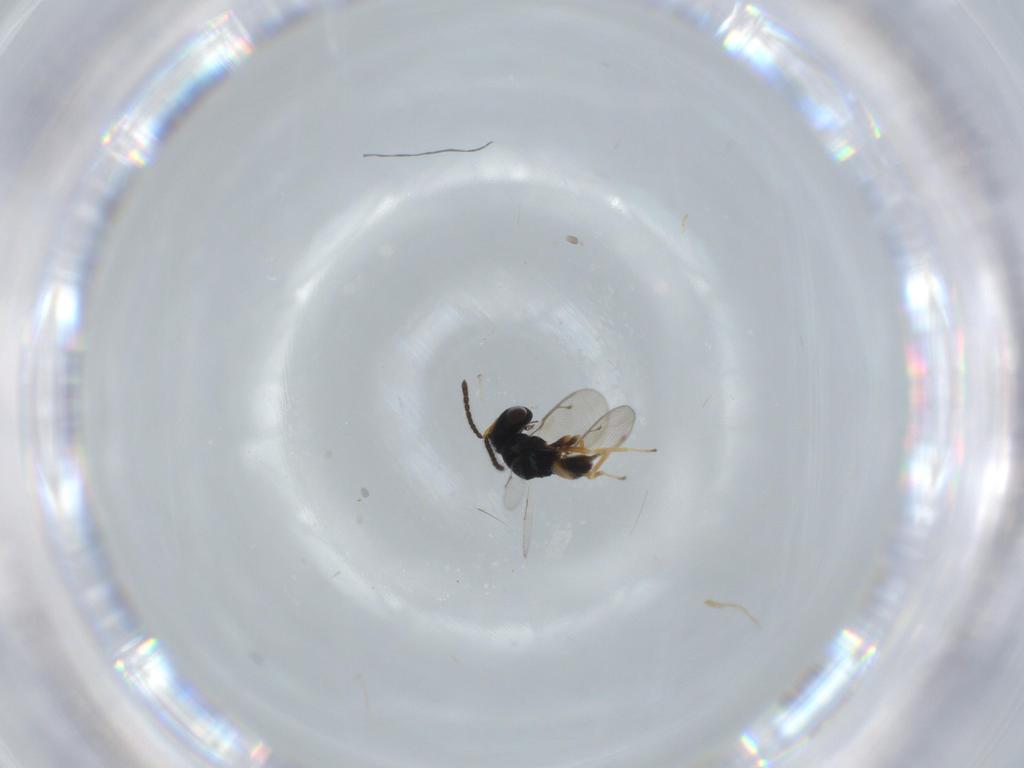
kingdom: Animalia
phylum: Arthropoda
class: Insecta
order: Hymenoptera
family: Pteromalidae
